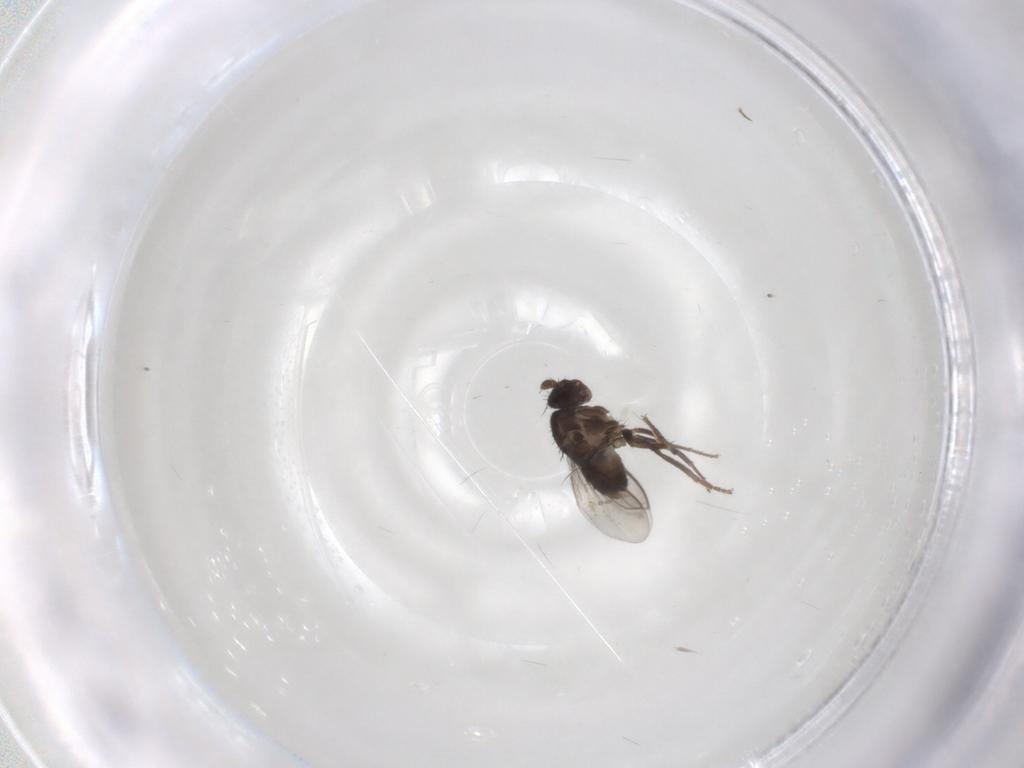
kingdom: Animalia
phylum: Arthropoda
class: Insecta
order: Diptera
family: Sphaeroceridae
